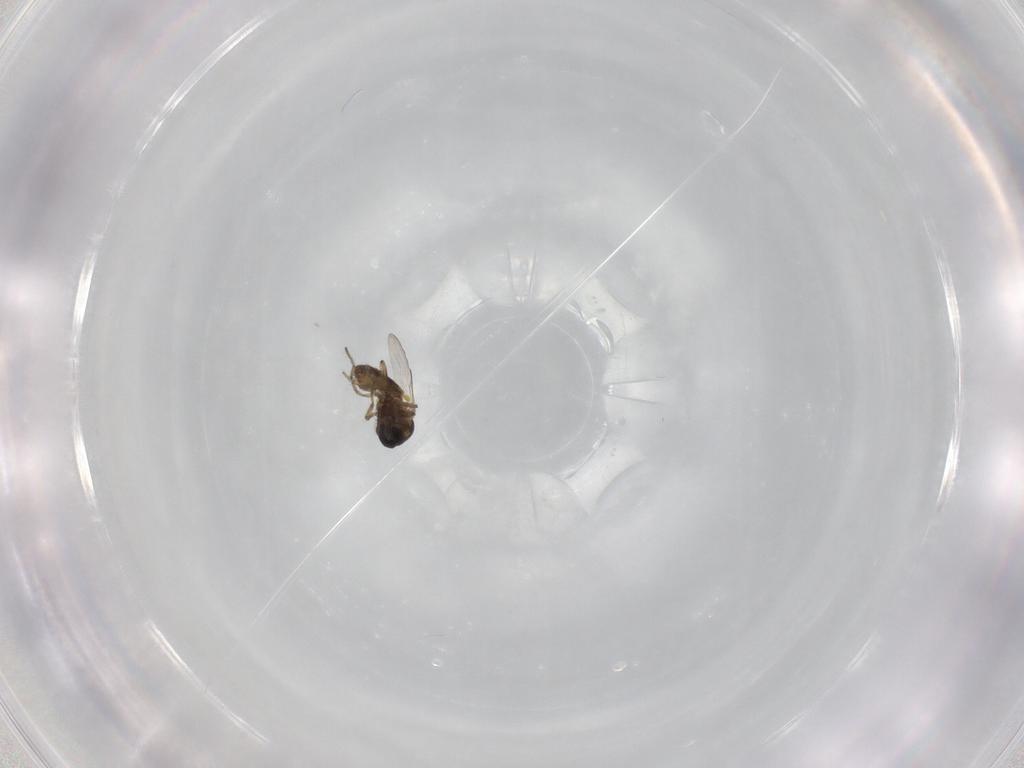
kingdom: Animalia
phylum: Arthropoda
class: Insecta
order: Diptera
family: Ceratopogonidae
